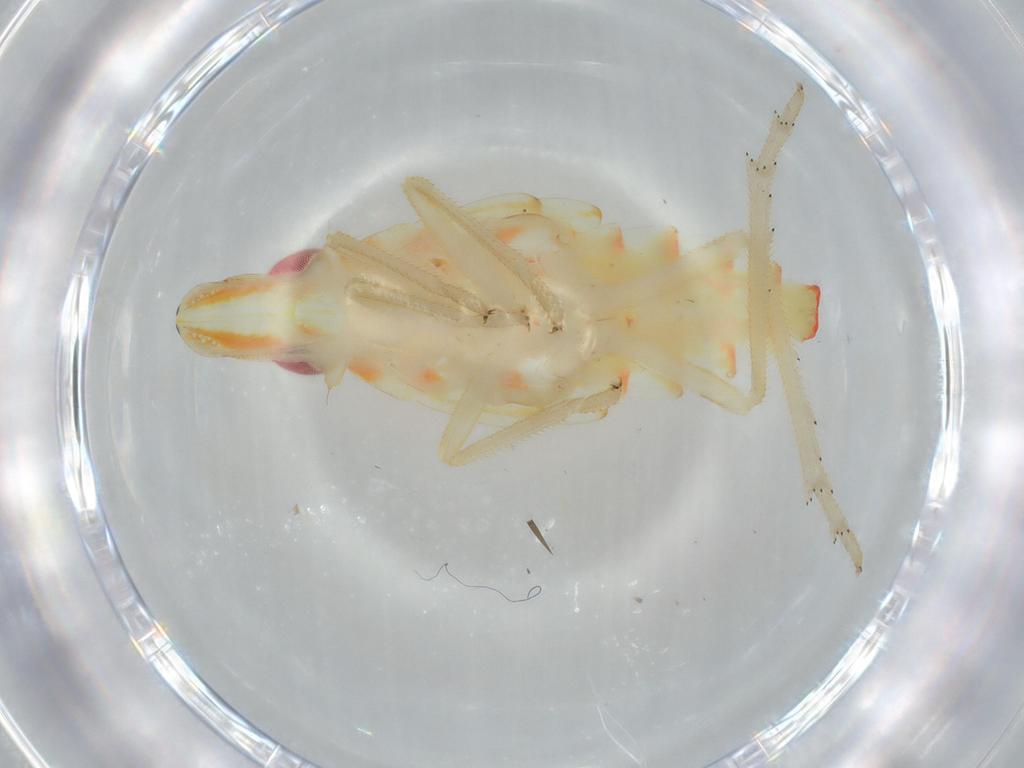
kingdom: Animalia
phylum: Arthropoda
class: Insecta
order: Hemiptera
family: Tropiduchidae
